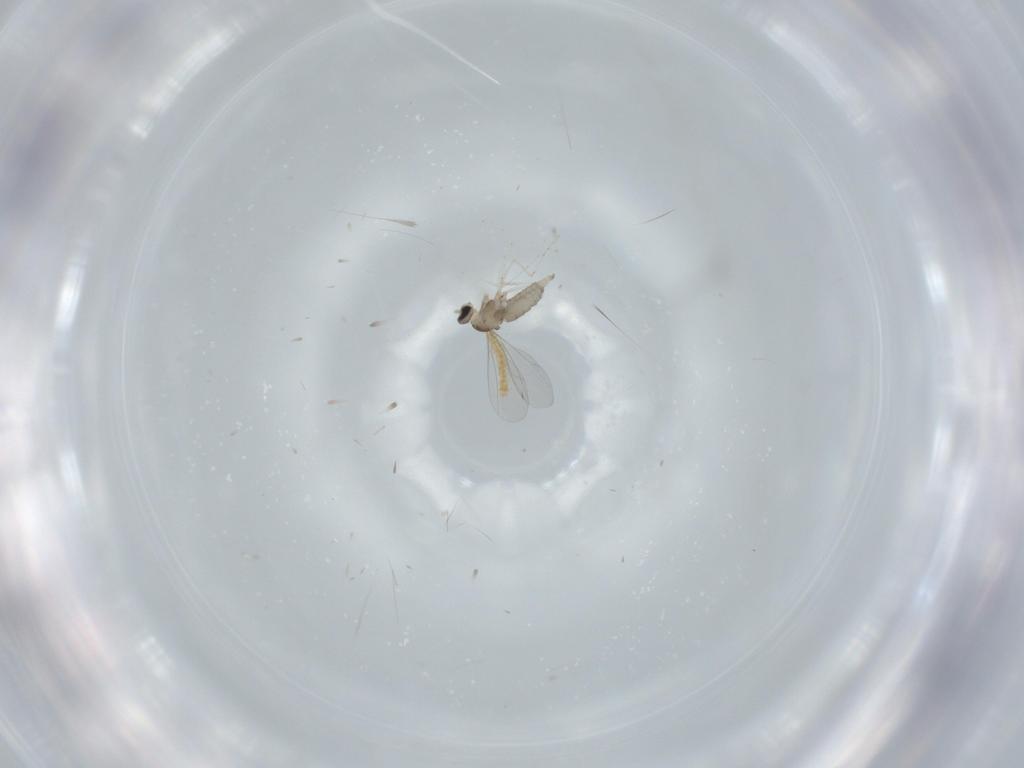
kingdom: Animalia
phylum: Arthropoda
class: Insecta
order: Diptera
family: Cecidomyiidae
